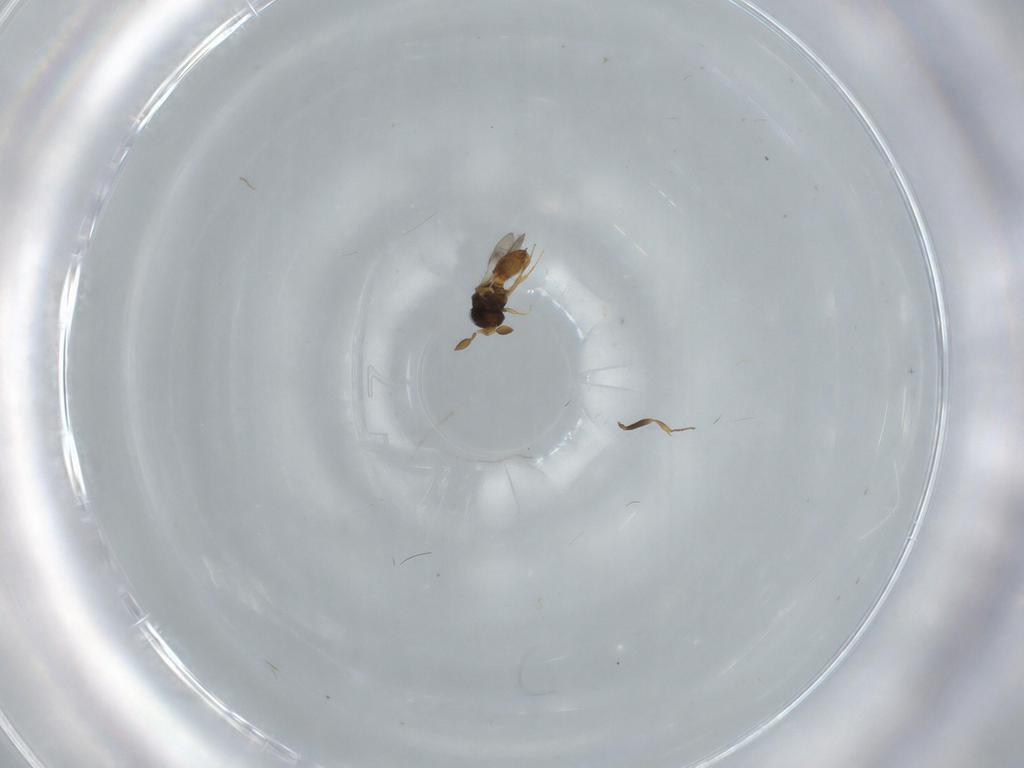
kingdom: Animalia
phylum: Arthropoda
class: Insecta
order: Hymenoptera
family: Scelionidae
